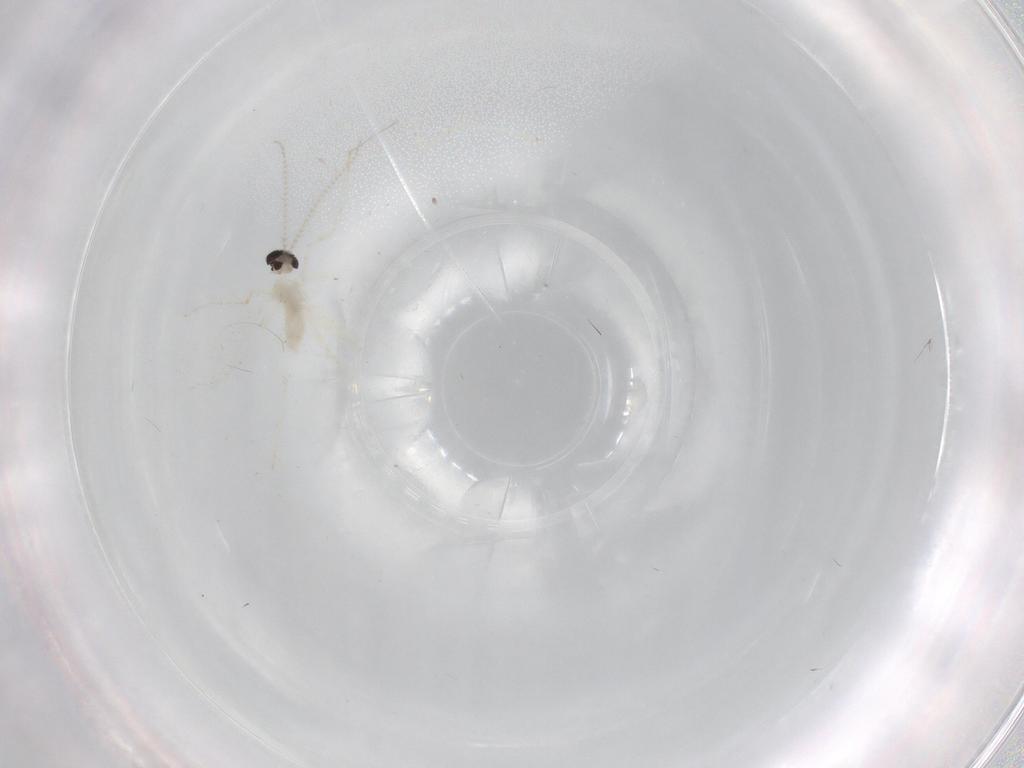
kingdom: Animalia
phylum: Arthropoda
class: Insecta
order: Diptera
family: Cecidomyiidae
